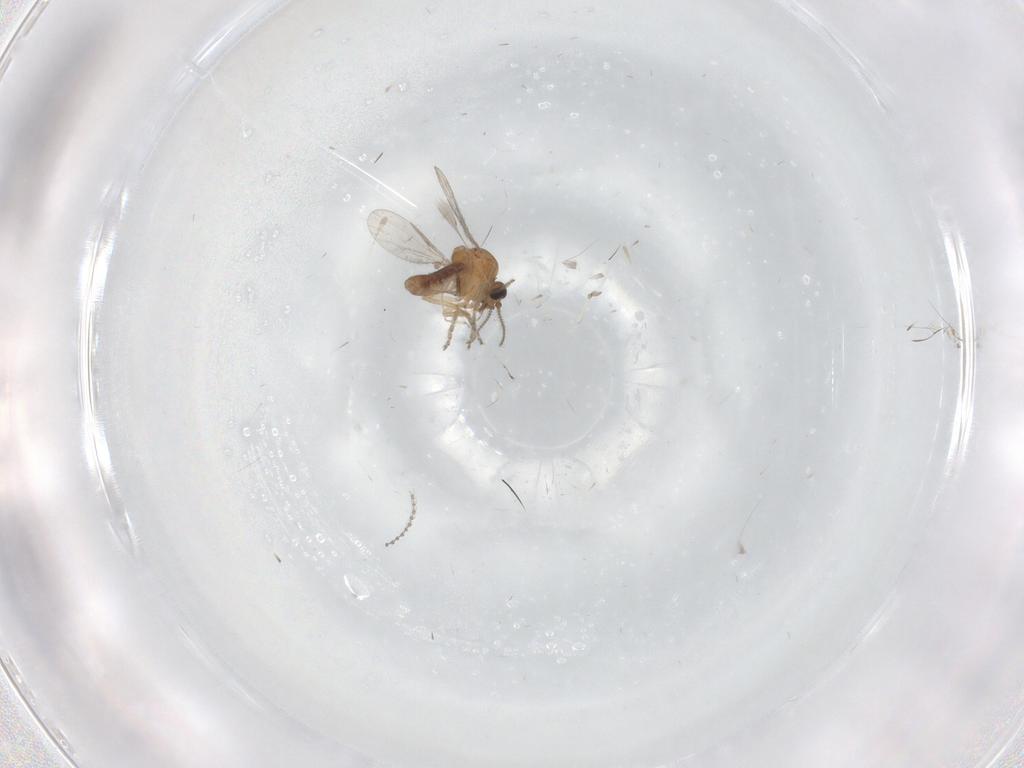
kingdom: Animalia
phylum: Arthropoda
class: Insecta
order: Diptera
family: Ceratopogonidae
